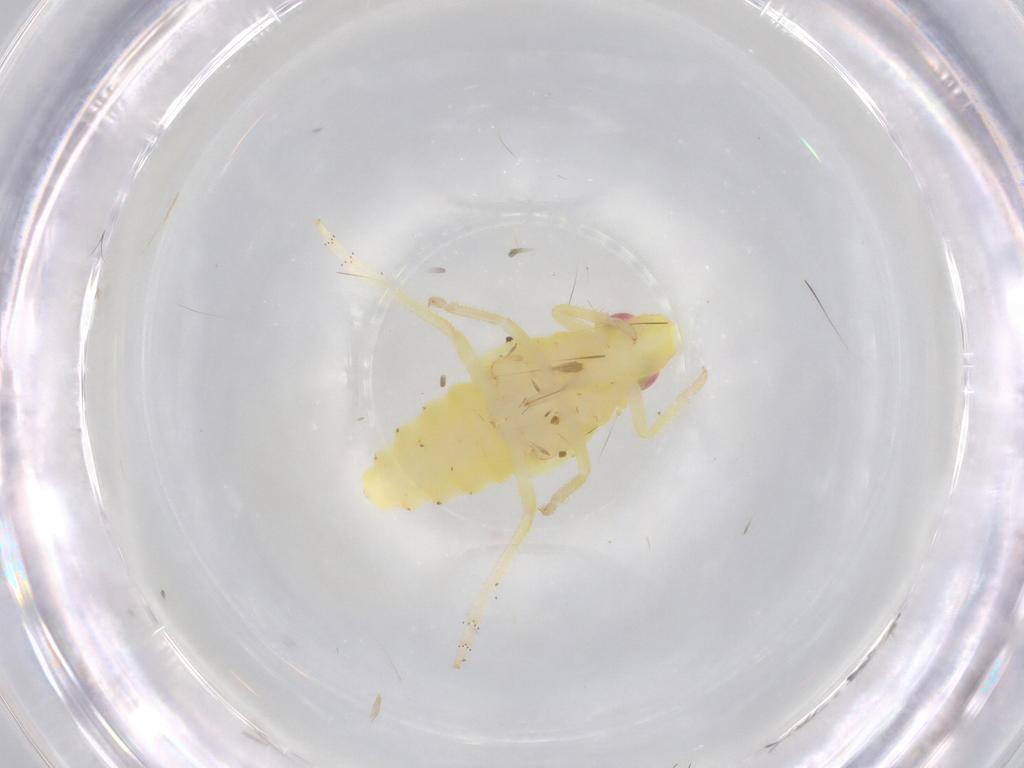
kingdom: Animalia
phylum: Arthropoda
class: Insecta
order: Hemiptera
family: Tropiduchidae
